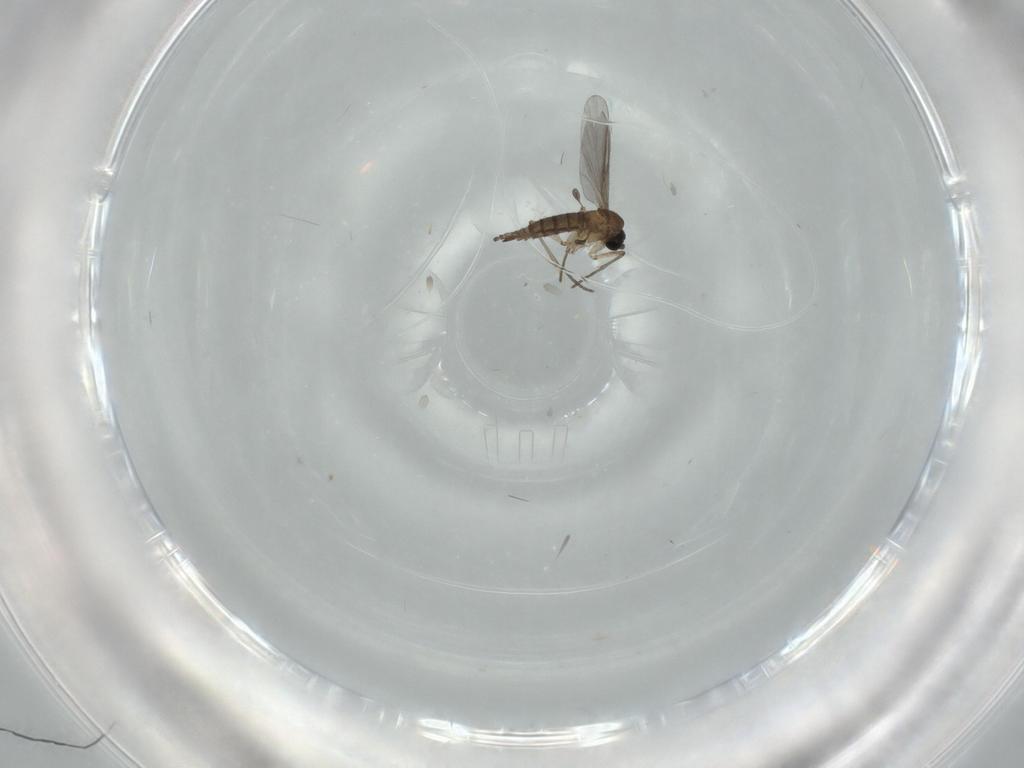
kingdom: Animalia
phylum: Arthropoda
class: Insecta
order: Diptera
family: Sciaridae
